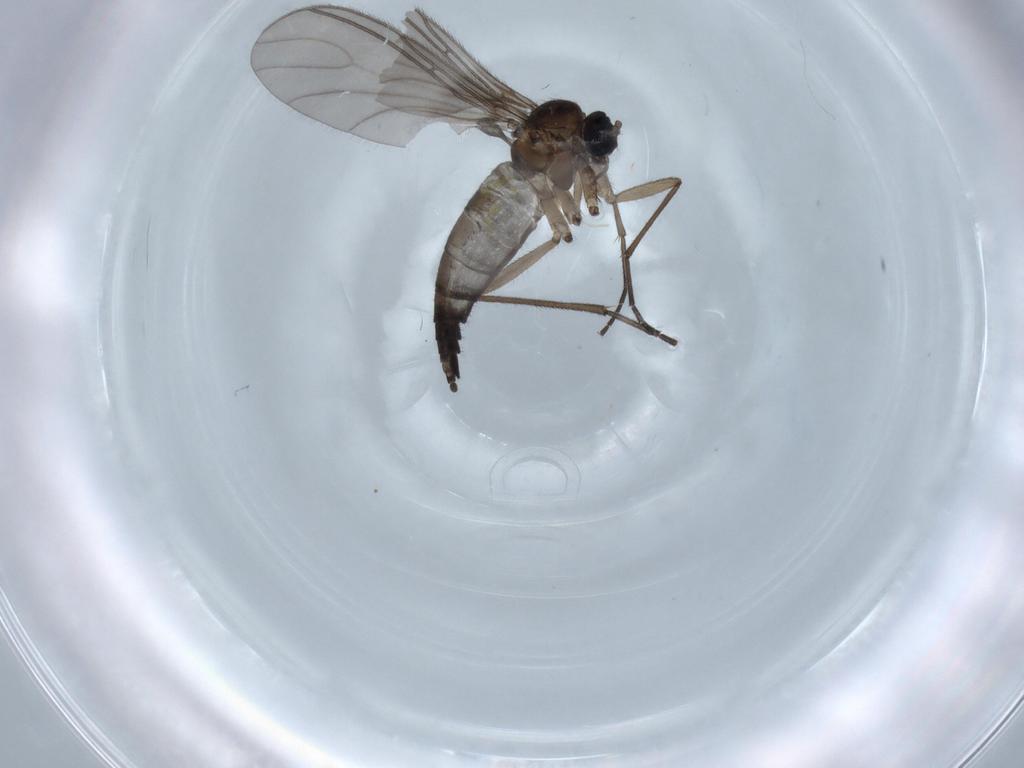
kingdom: Animalia
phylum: Arthropoda
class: Insecta
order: Diptera
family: Sciaridae
